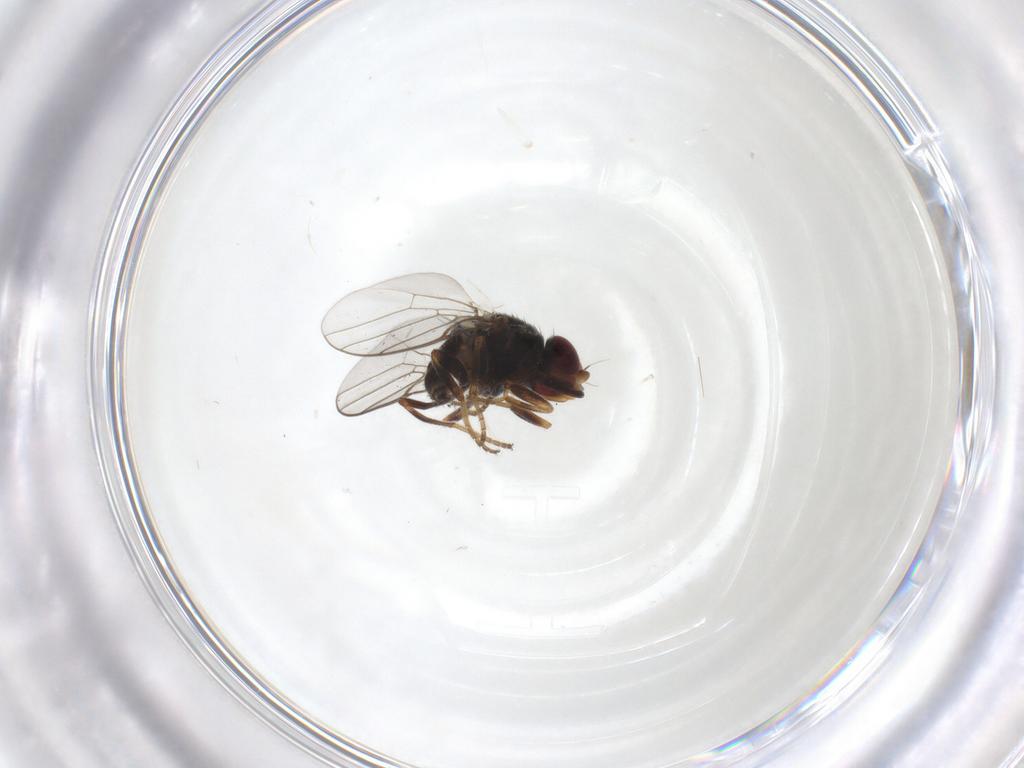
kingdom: Animalia
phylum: Arthropoda
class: Insecta
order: Diptera
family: Chloropidae
